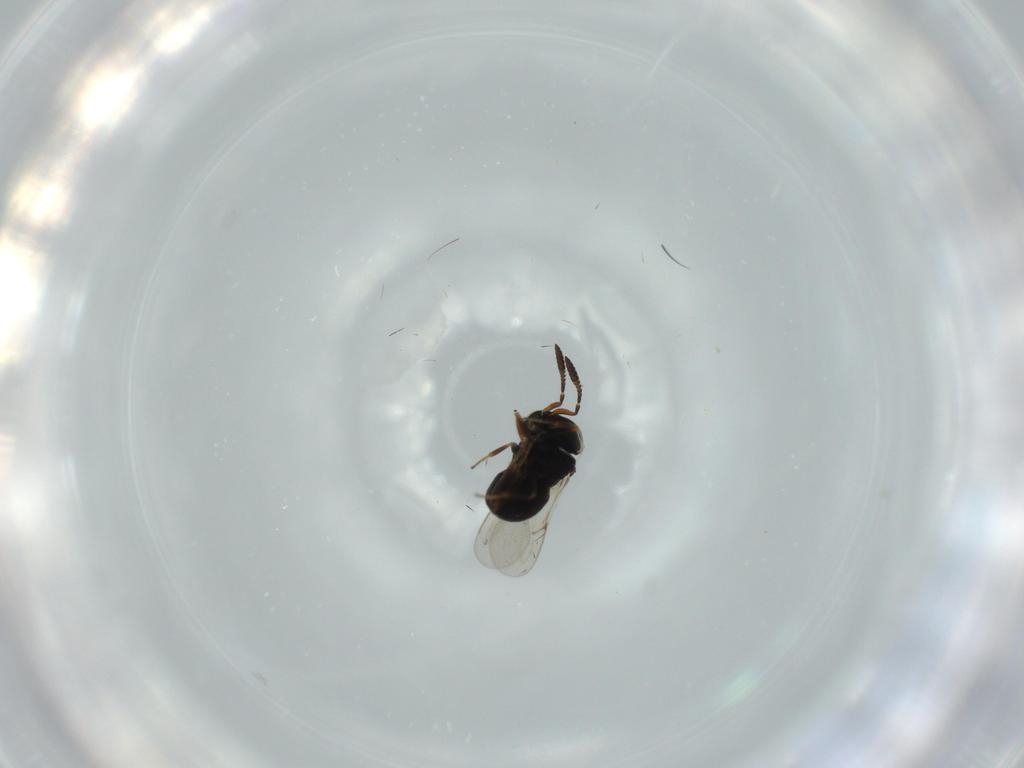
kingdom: Animalia
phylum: Arthropoda
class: Insecta
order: Hymenoptera
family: Scelionidae
